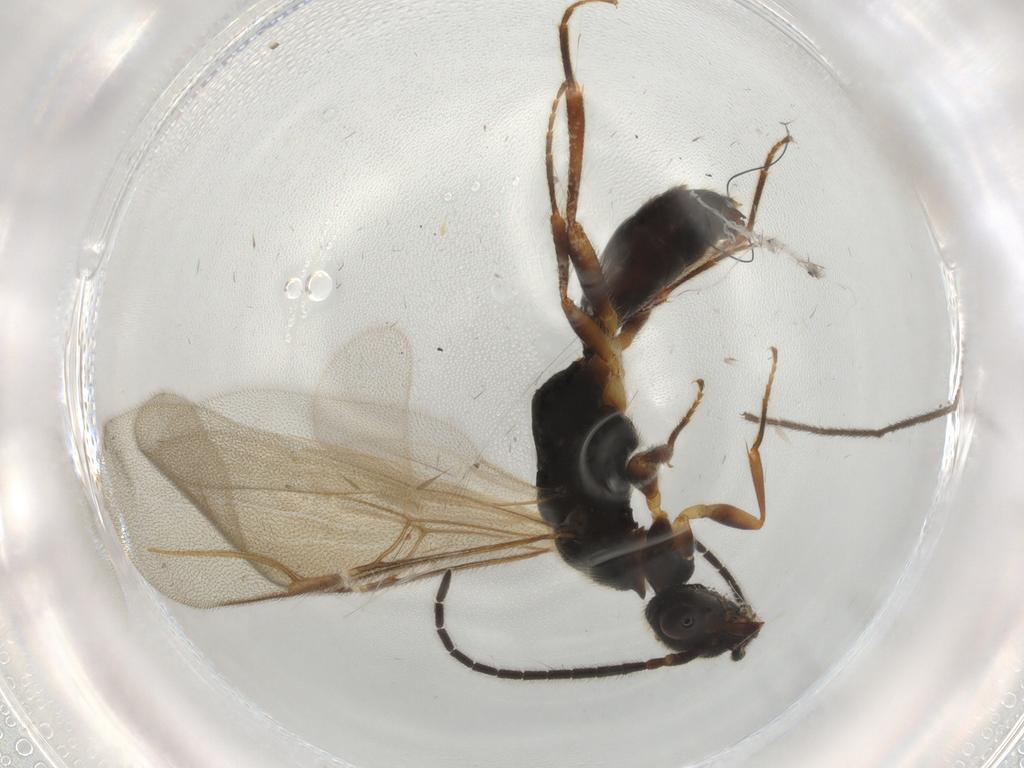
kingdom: Animalia
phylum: Arthropoda
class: Insecta
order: Hymenoptera
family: Bethylidae
